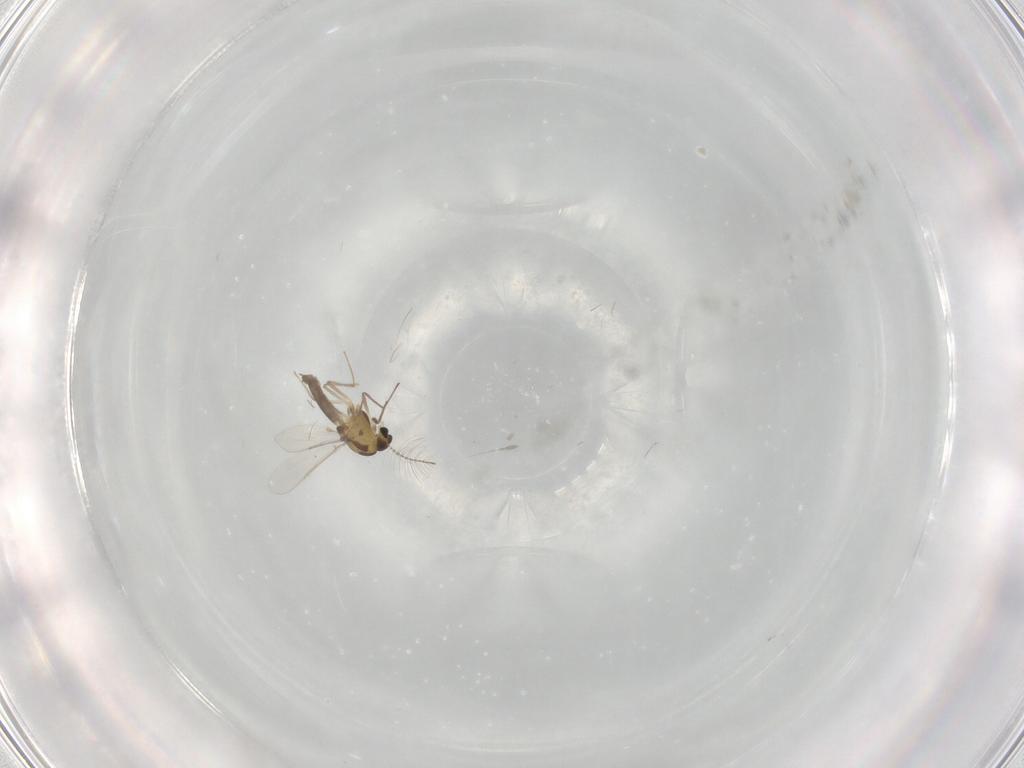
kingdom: Animalia
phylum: Arthropoda
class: Insecta
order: Diptera
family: Chironomidae
